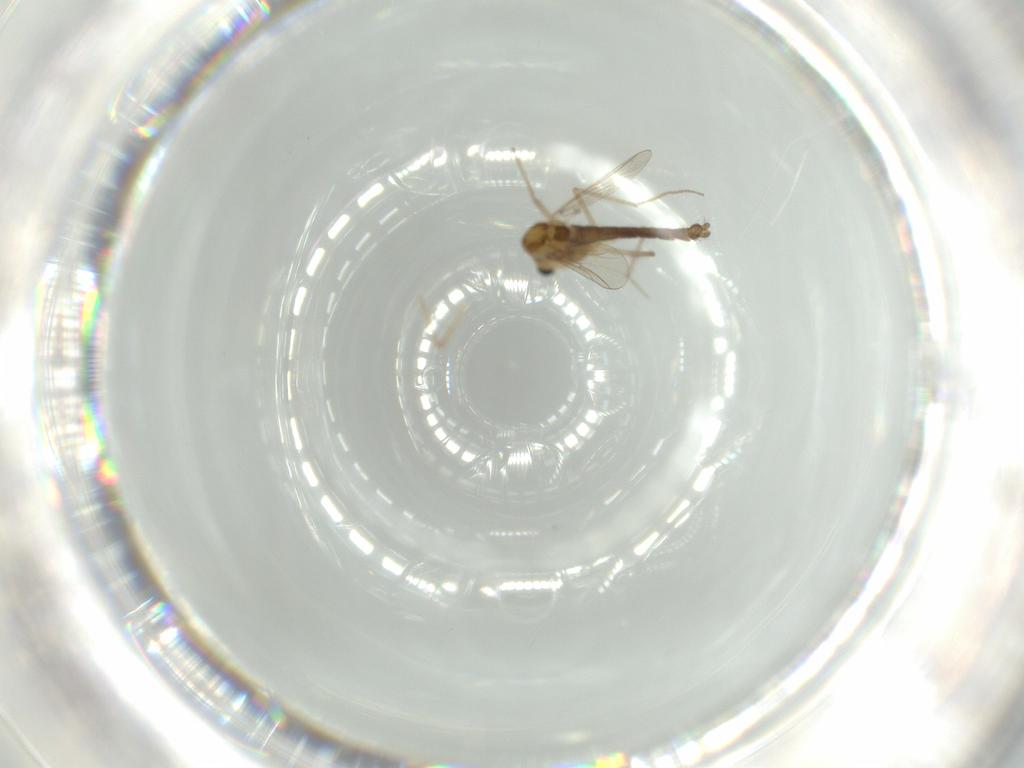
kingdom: Animalia
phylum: Arthropoda
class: Insecta
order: Diptera
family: Chironomidae
